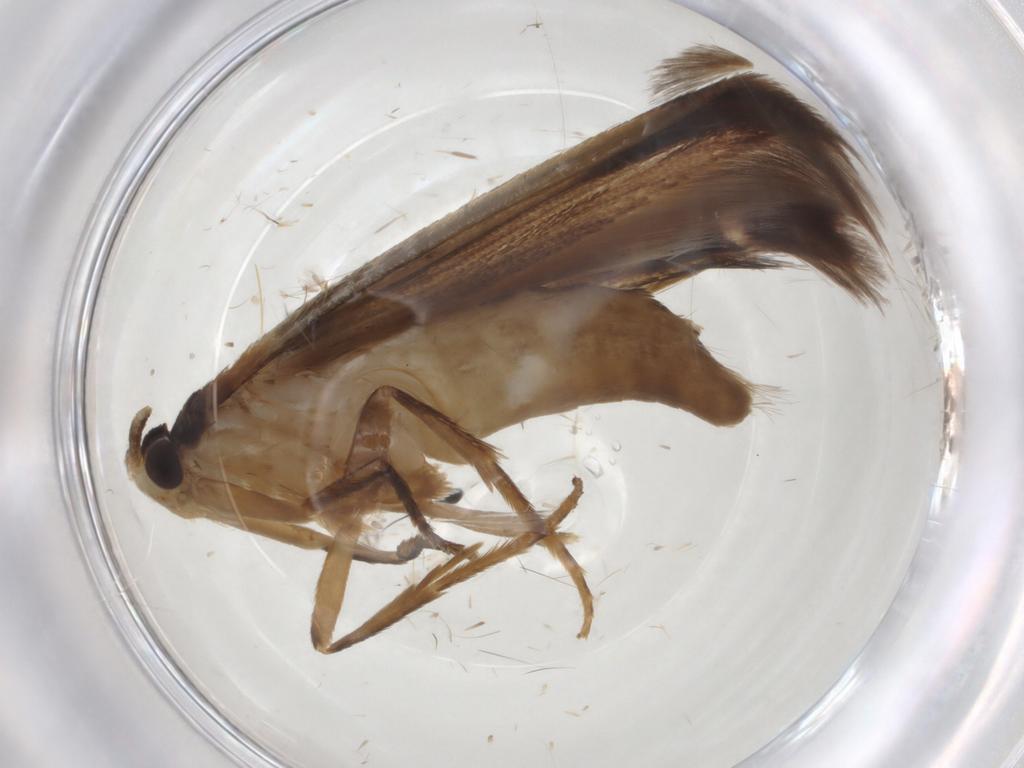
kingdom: Animalia
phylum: Arthropoda
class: Insecta
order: Lepidoptera
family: Tineidae
